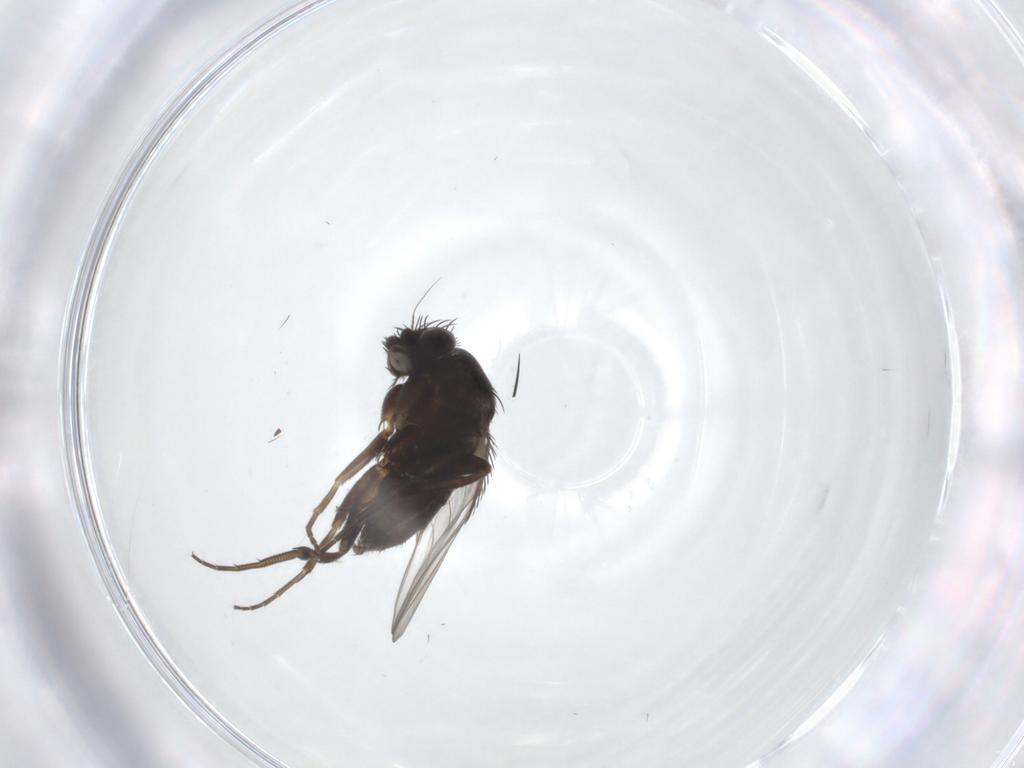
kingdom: Animalia
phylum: Arthropoda
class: Insecta
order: Diptera
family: Phoridae
